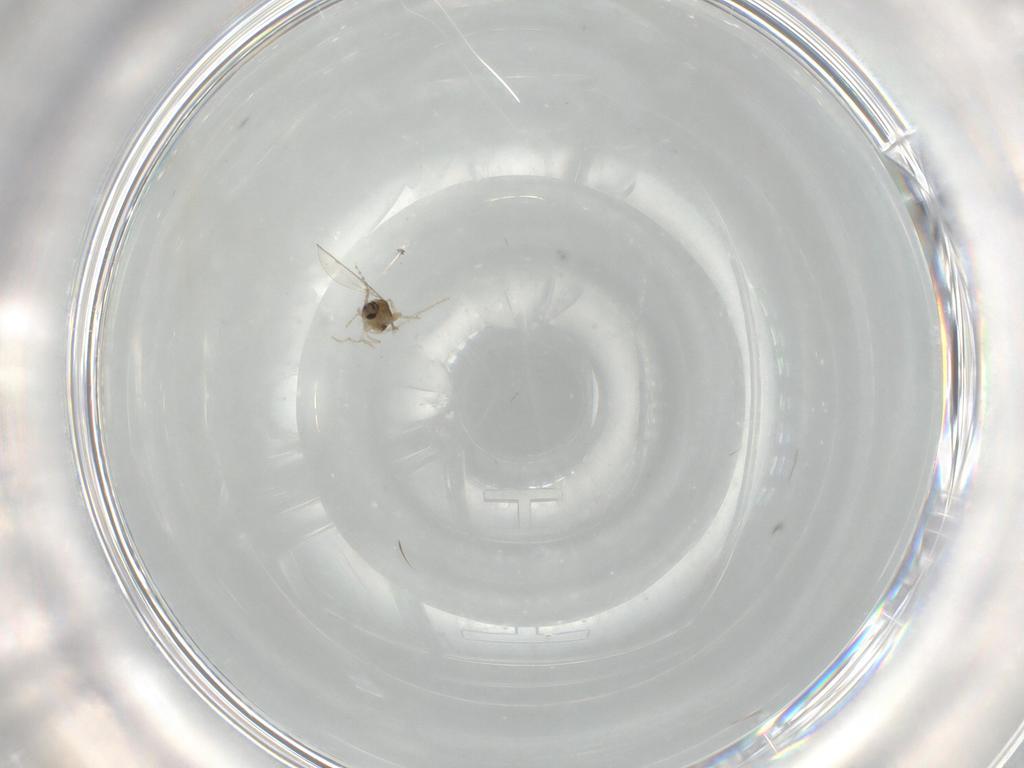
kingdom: Animalia
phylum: Arthropoda
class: Insecta
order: Diptera
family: Cecidomyiidae
